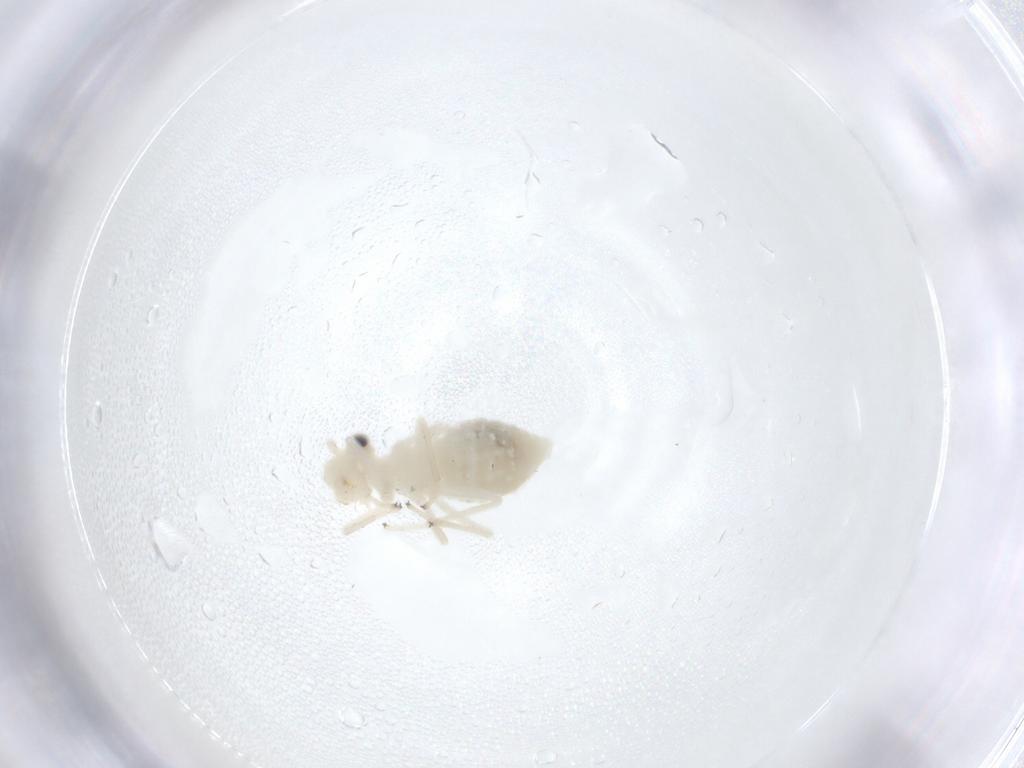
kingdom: Animalia
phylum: Arthropoda
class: Insecta
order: Psocodea
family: Caeciliusidae
